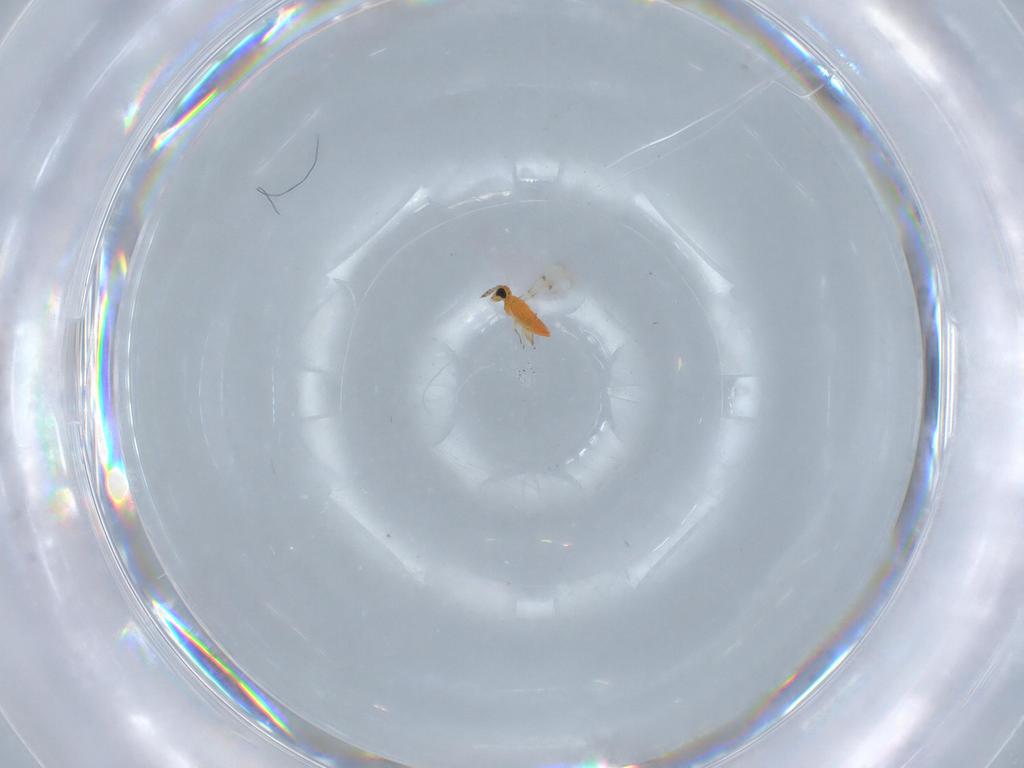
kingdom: Animalia
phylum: Arthropoda
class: Insecta
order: Hymenoptera
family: Trichogrammatidae
